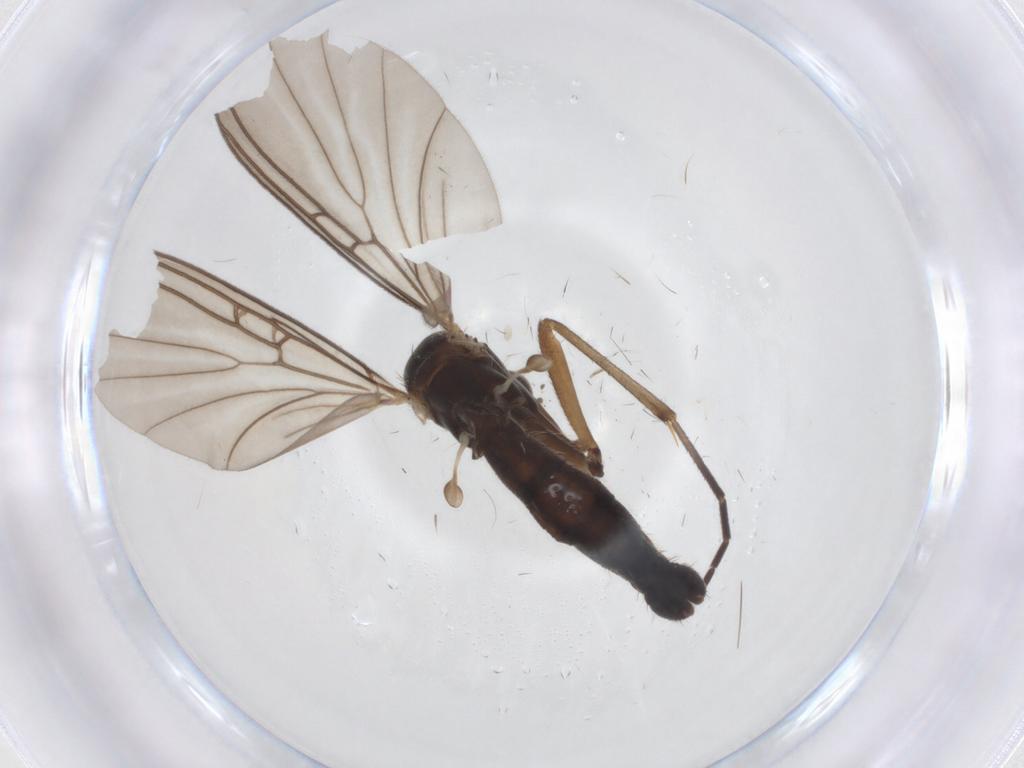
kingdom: Animalia
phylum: Arthropoda
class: Insecta
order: Diptera
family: Mycetophilidae
